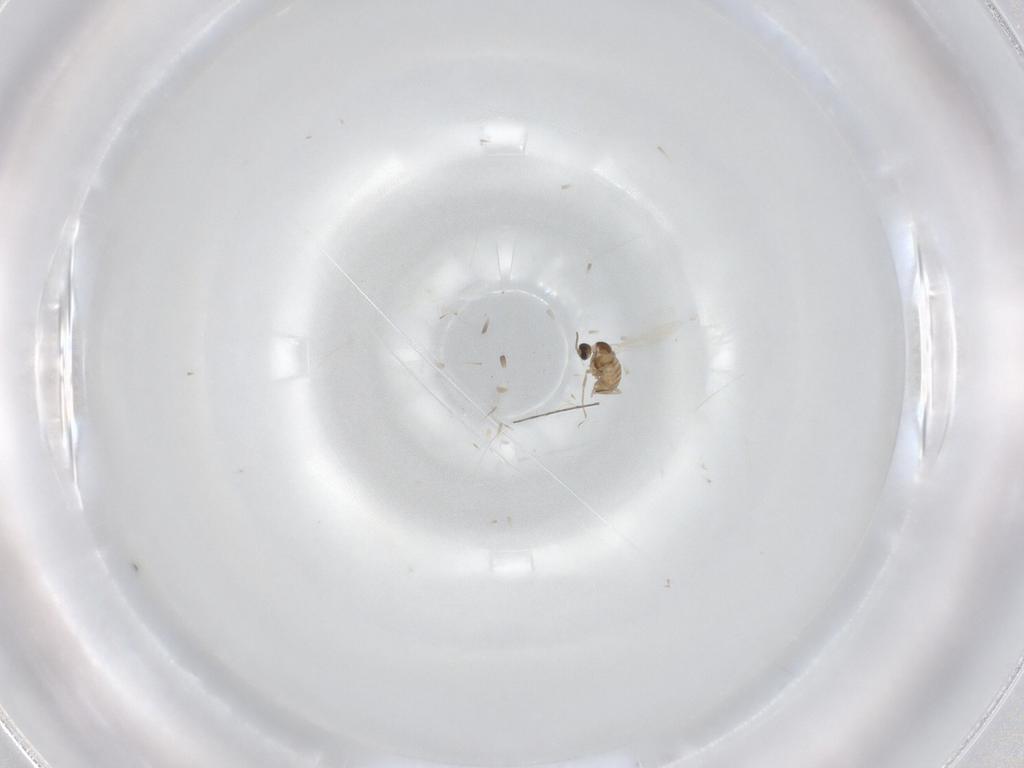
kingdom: Animalia
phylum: Arthropoda
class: Insecta
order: Diptera
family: Cecidomyiidae
